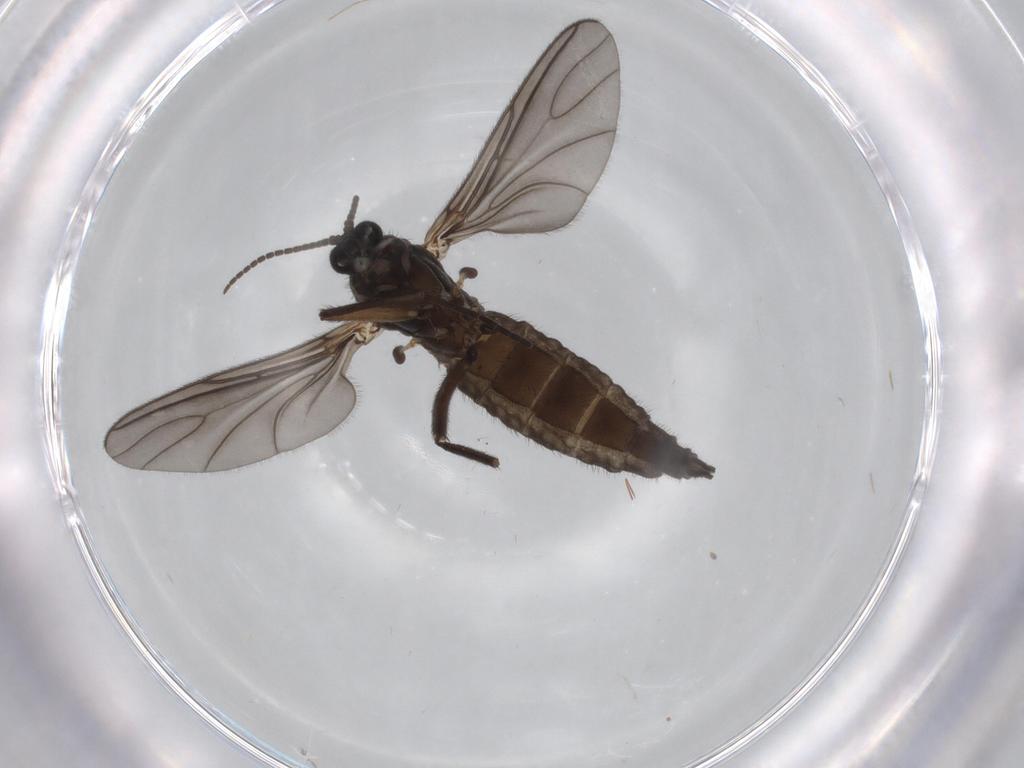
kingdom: Animalia
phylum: Arthropoda
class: Insecta
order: Diptera
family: Sciaridae
